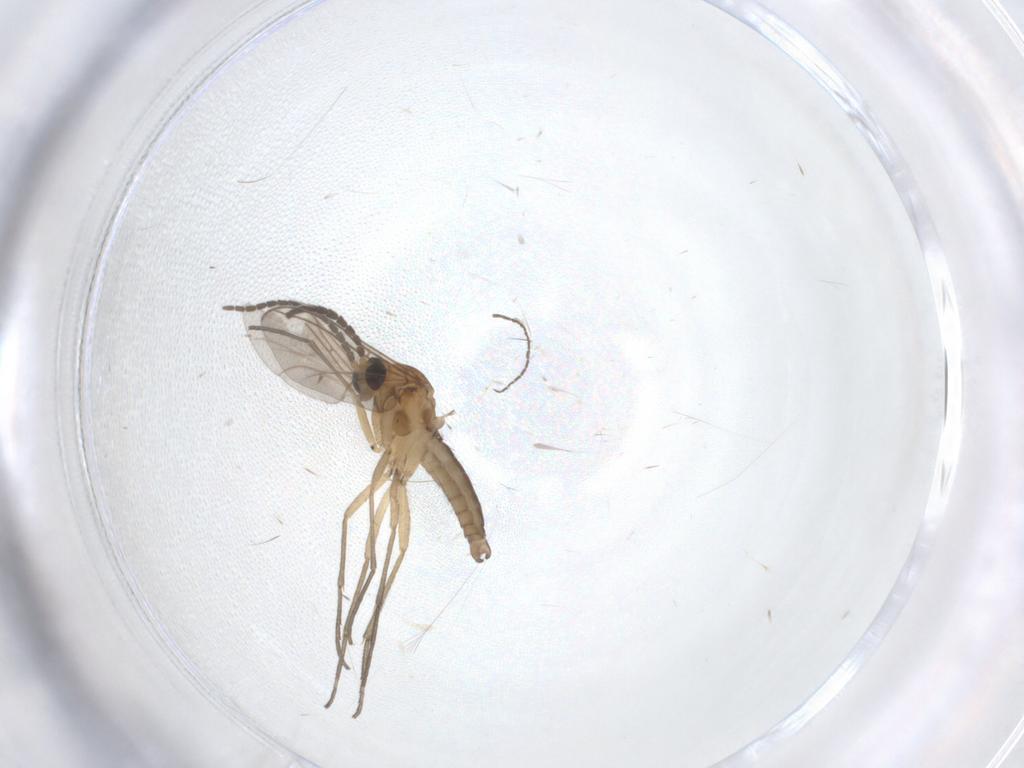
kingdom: Animalia
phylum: Arthropoda
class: Insecta
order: Diptera
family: Sciaridae
